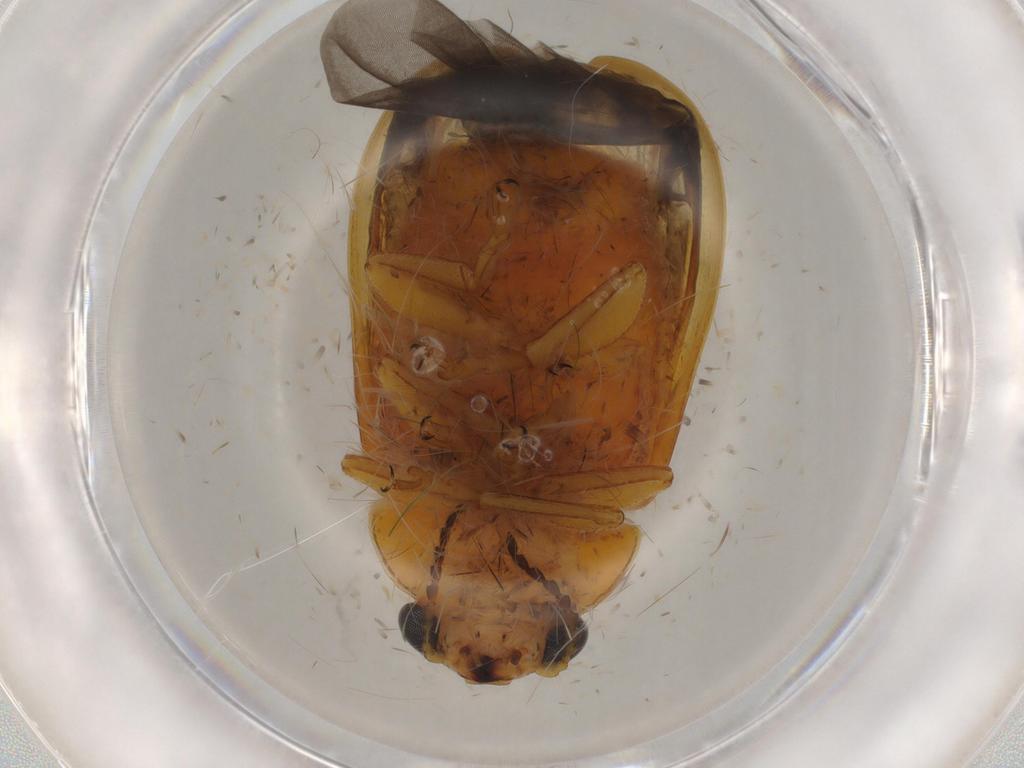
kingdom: Animalia
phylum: Arthropoda
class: Insecta
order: Coleoptera
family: Chrysomelidae
